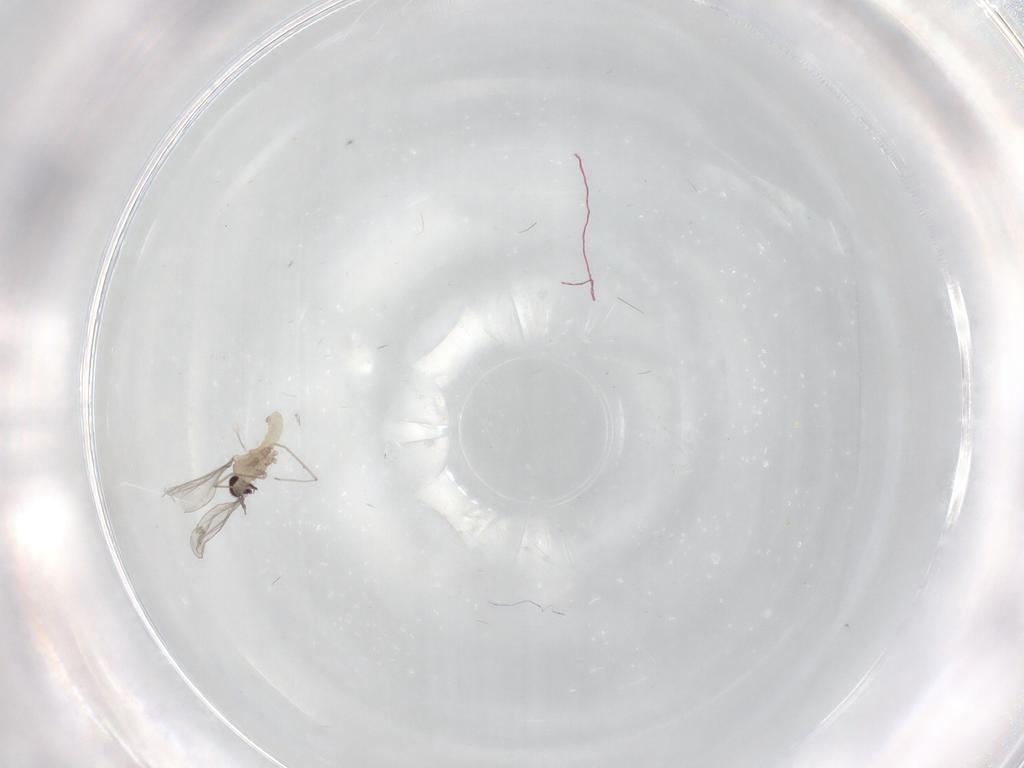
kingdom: Animalia
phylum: Arthropoda
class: Insecta
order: Diptera
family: Cecidomyiidae
